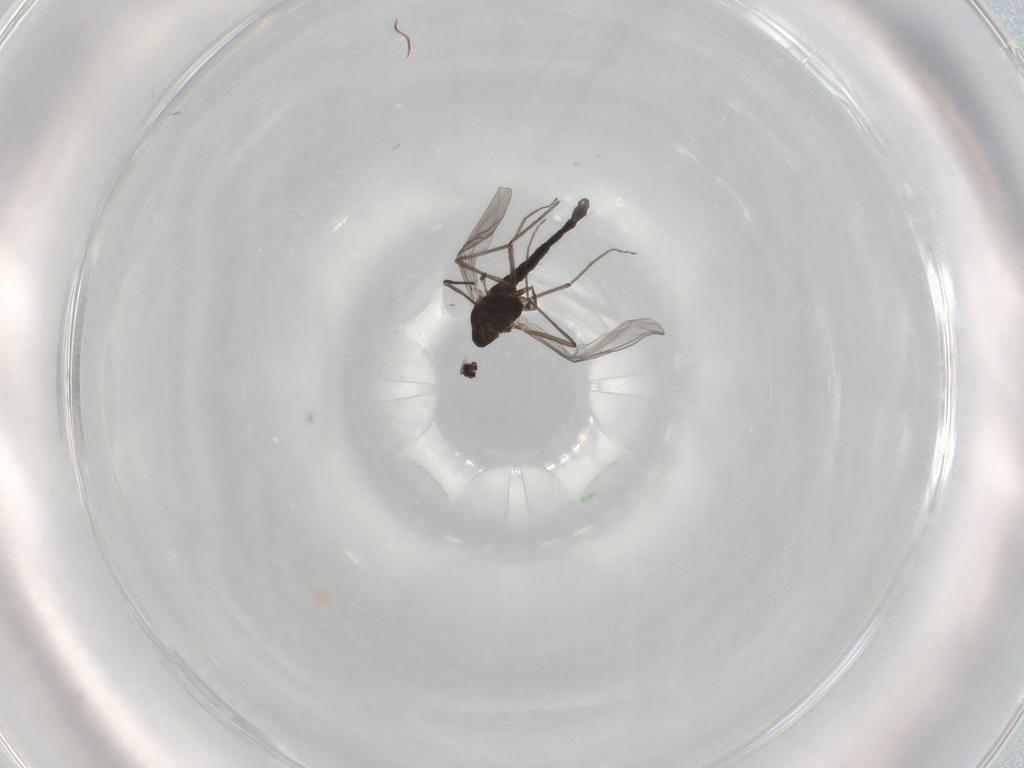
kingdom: Animalia
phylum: Arthropoda
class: Insecta
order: Diptera
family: Chironomidae
